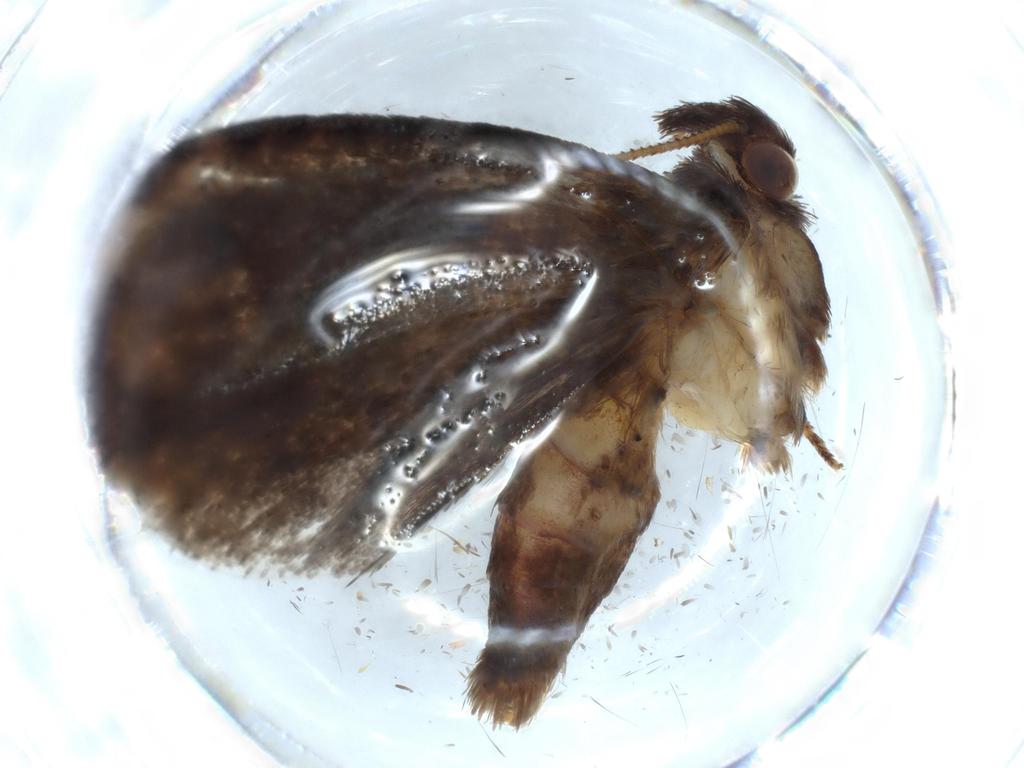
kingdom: Animalia
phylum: Arthropoda
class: Insecta
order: Lepidoptera
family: Tineidae
